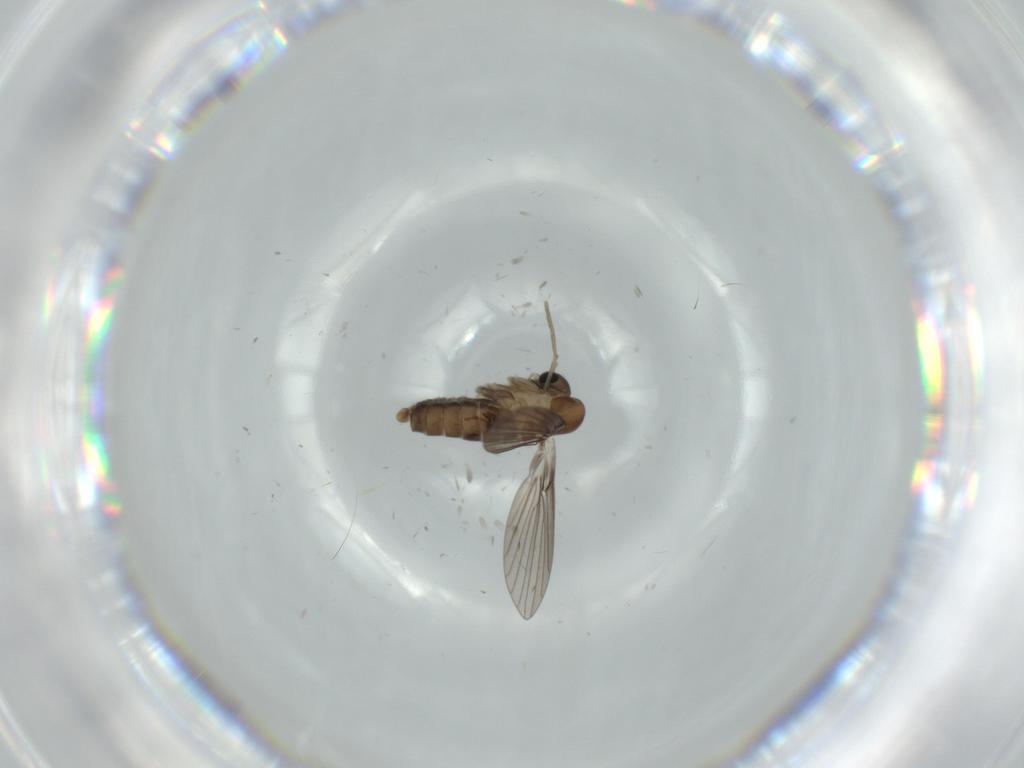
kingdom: Animalia
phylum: Arthropoda
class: Insecta
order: Diptera
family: Psychodidae
